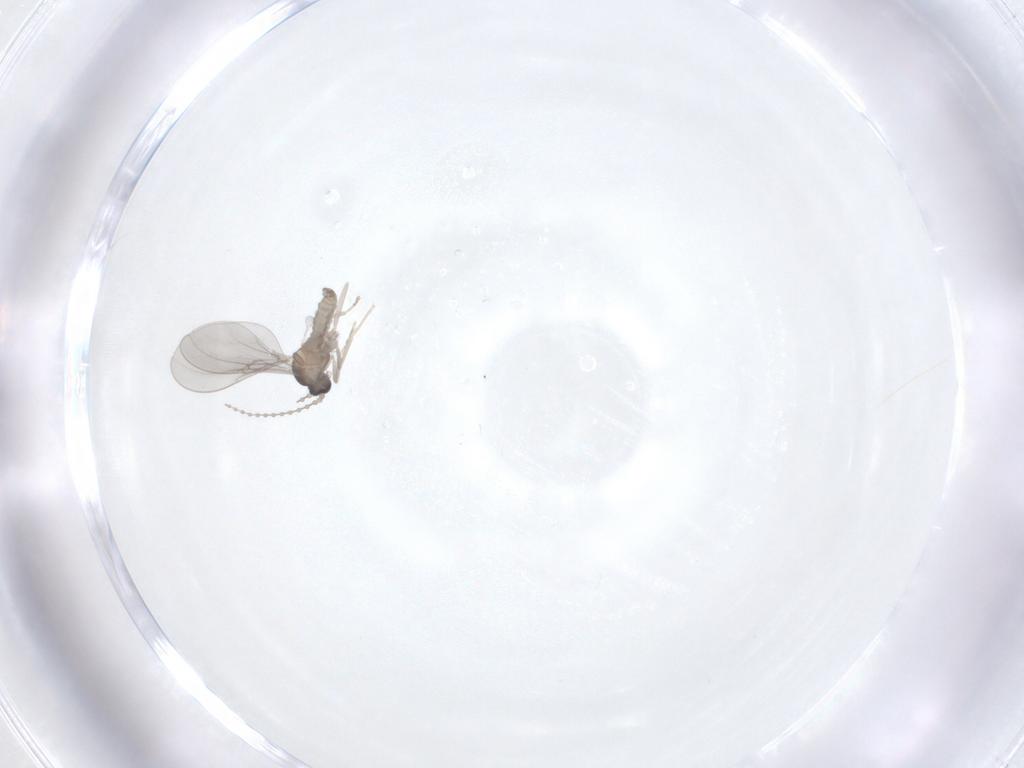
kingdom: Animalia
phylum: Arthropoda
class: Insecta
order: Diptera
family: Cecidomyiidae
